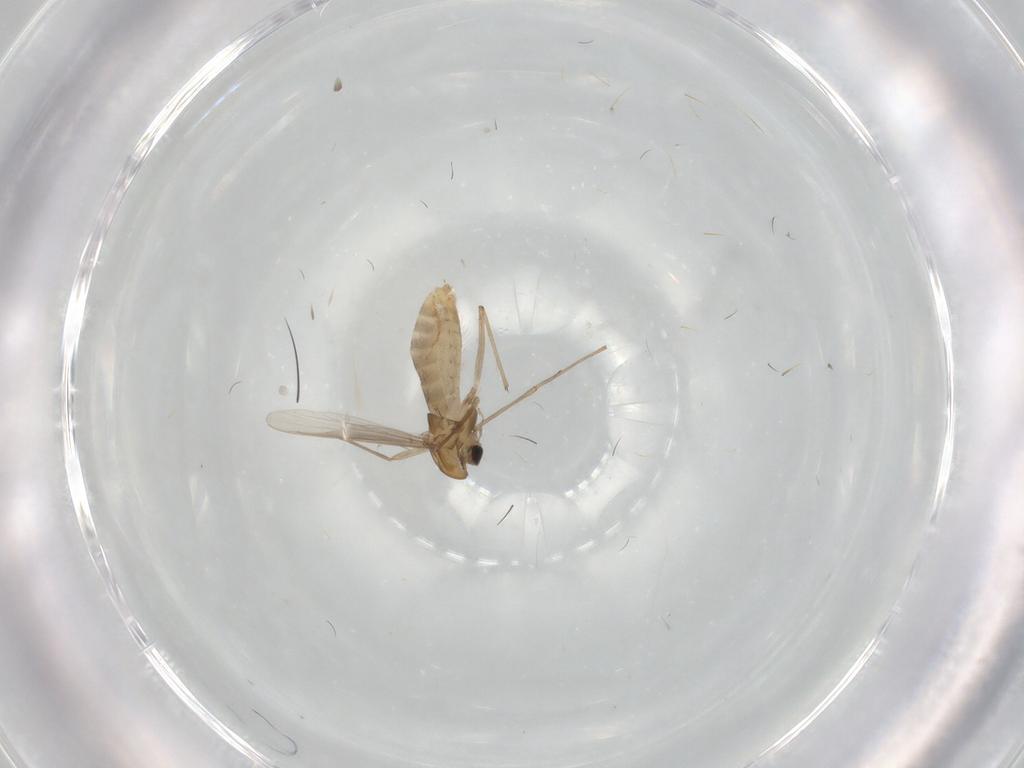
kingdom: Animalia
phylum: Arthropoda
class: Insecta
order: Diptera
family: Chironomidae
